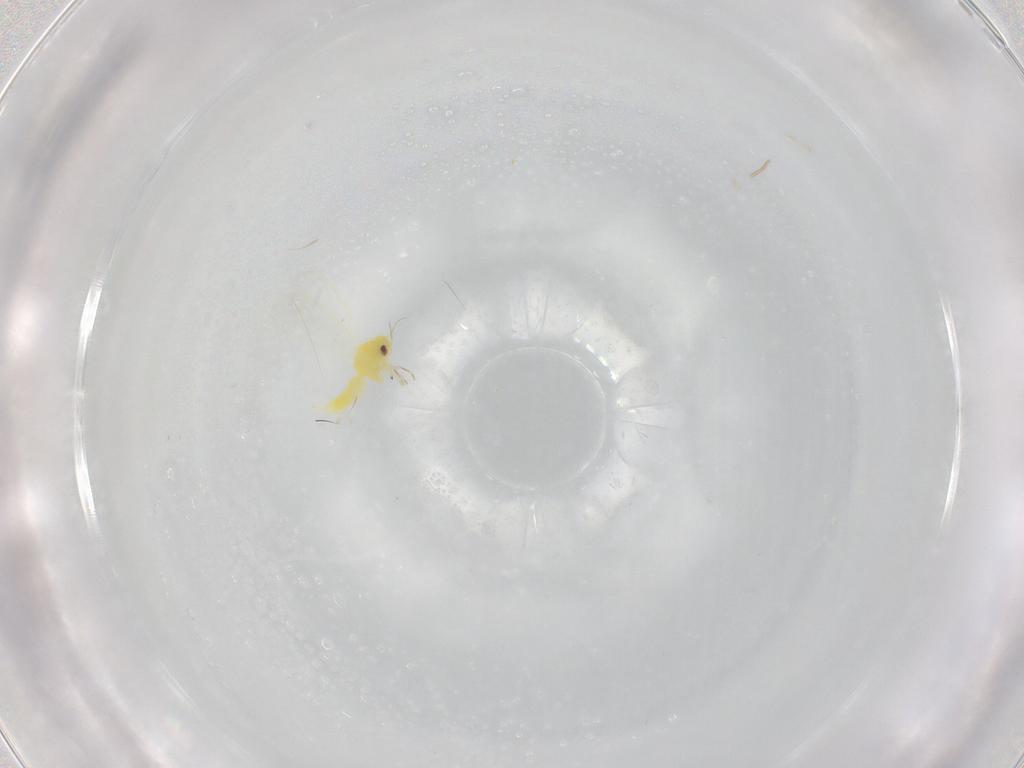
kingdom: Animalia
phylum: Arthropoda
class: Insecta
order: Hemiptera
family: Aleyrodidae
